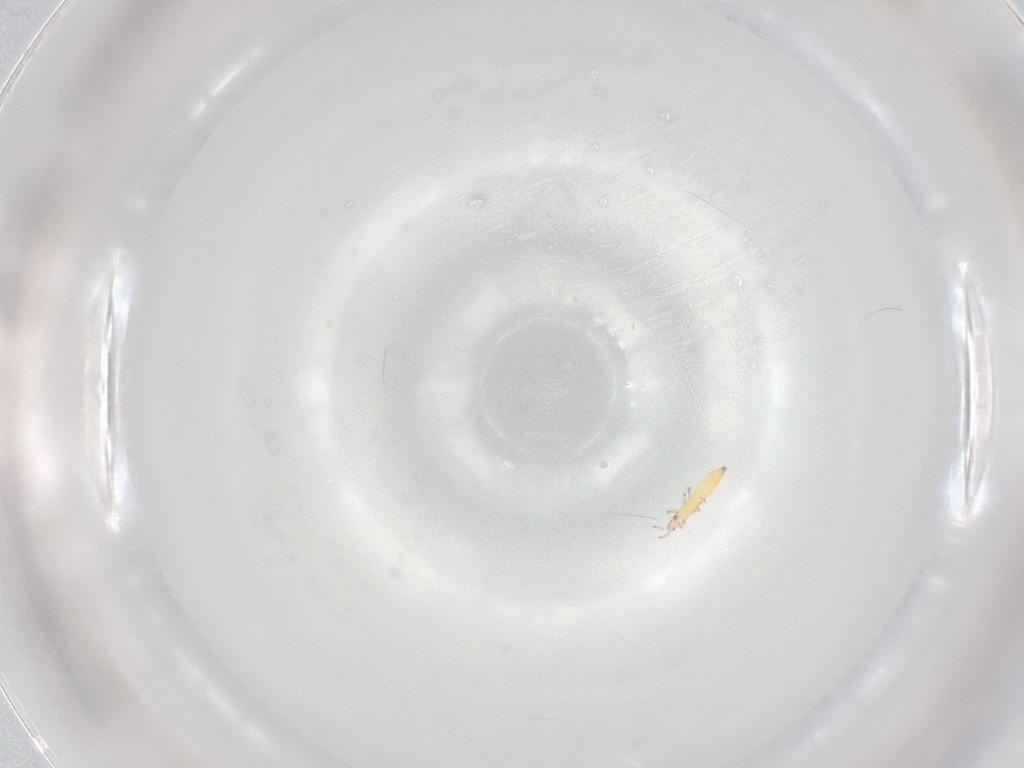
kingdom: Animalia
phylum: Arthropoda
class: Insecta
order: Thysanoptera
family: Thripidae
